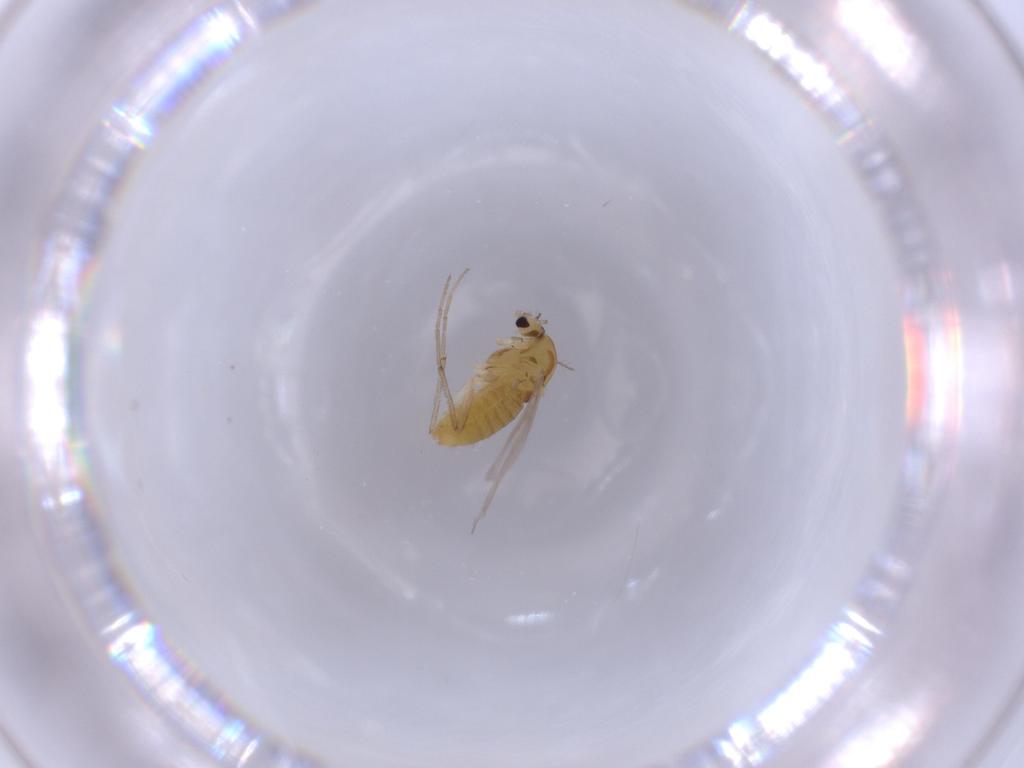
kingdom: Animalia
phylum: Arthropoda
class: Insecta
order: Diptera
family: Chironomidae
